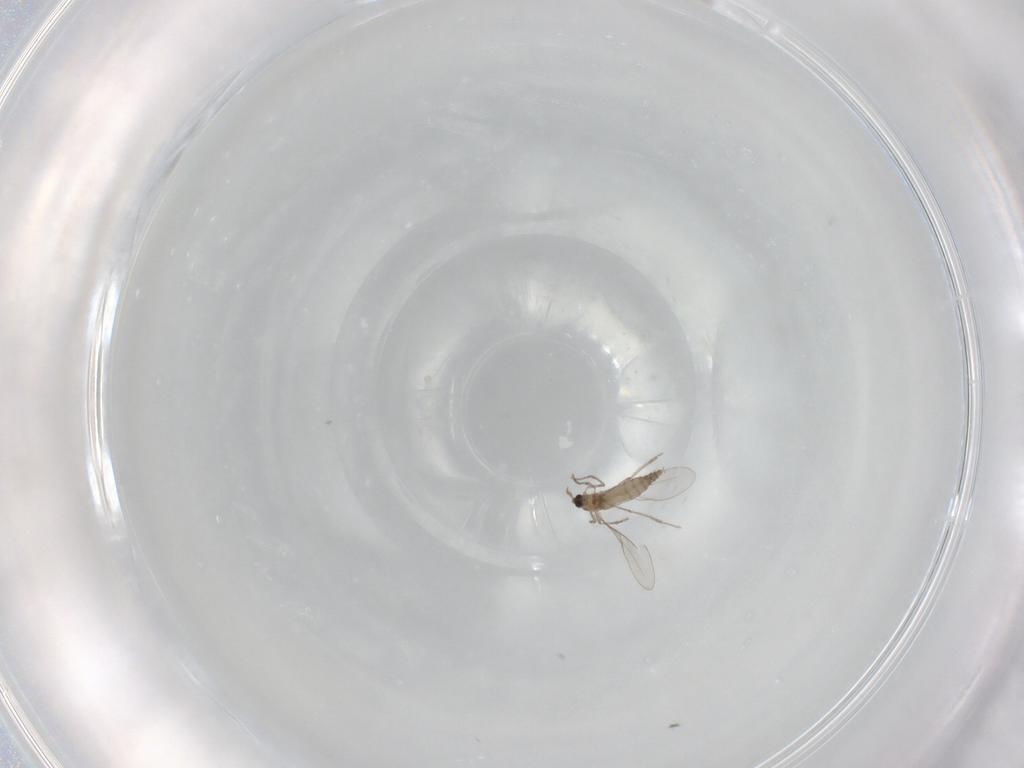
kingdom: Animalia
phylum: Arthropoda
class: Insecta
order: Diptera
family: Cecidomyiidae
